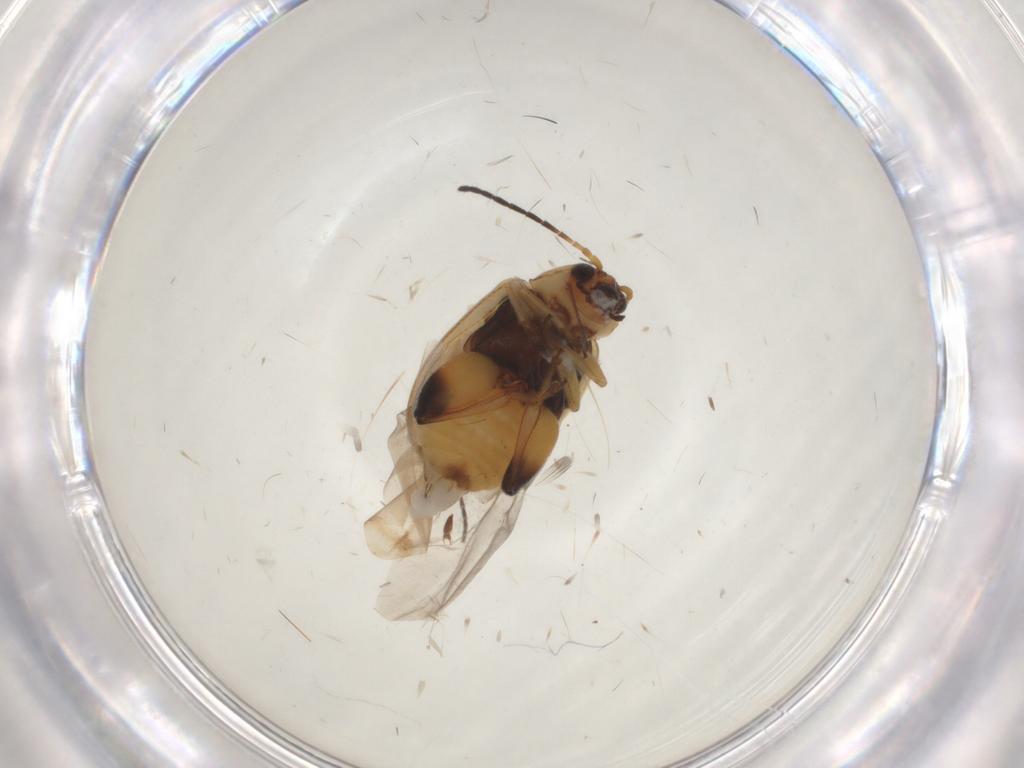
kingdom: Animalia
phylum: Arthropoda
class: Insecta
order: Coleoptera
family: Chrysomelidae
